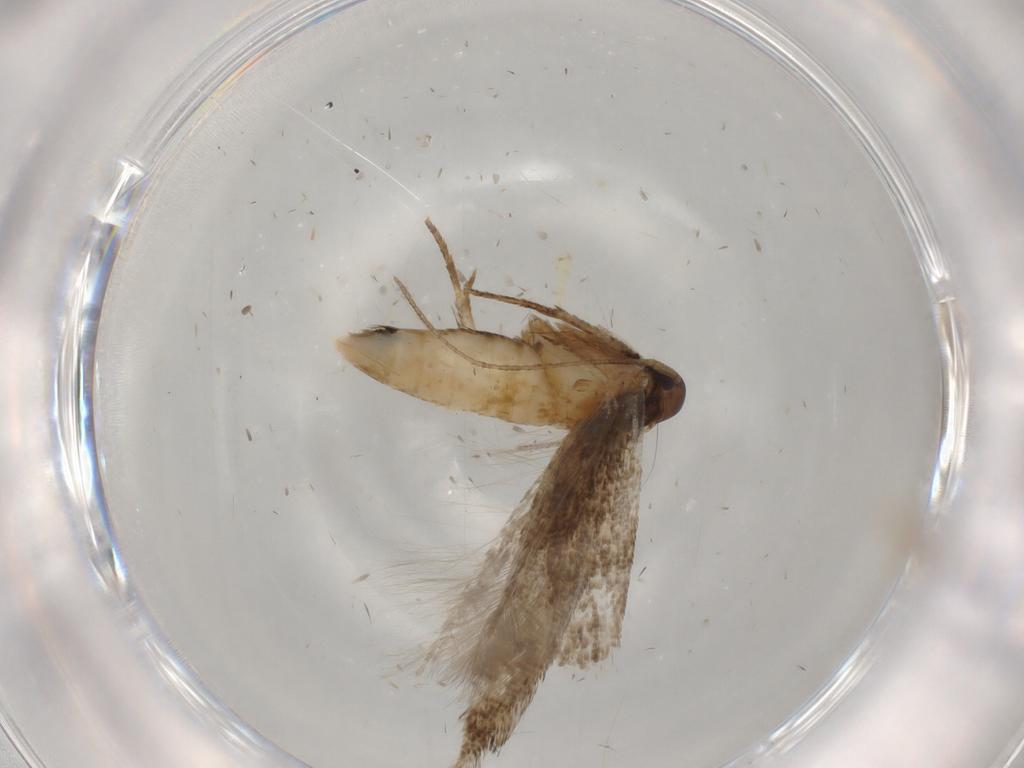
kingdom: Animalia
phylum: Arthropoda
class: Insecta
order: Lepidoptera
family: Cosmopterigidae
